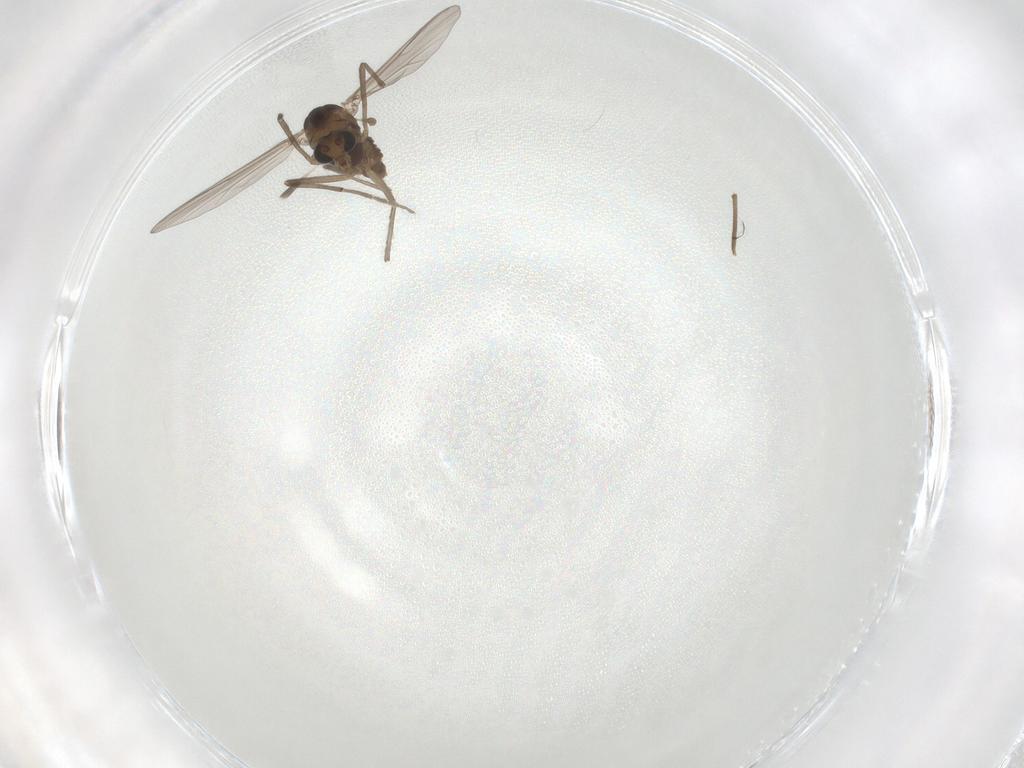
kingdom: Animalia
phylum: Arthropoda
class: Insecta
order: Diptera
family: Chironomidae
